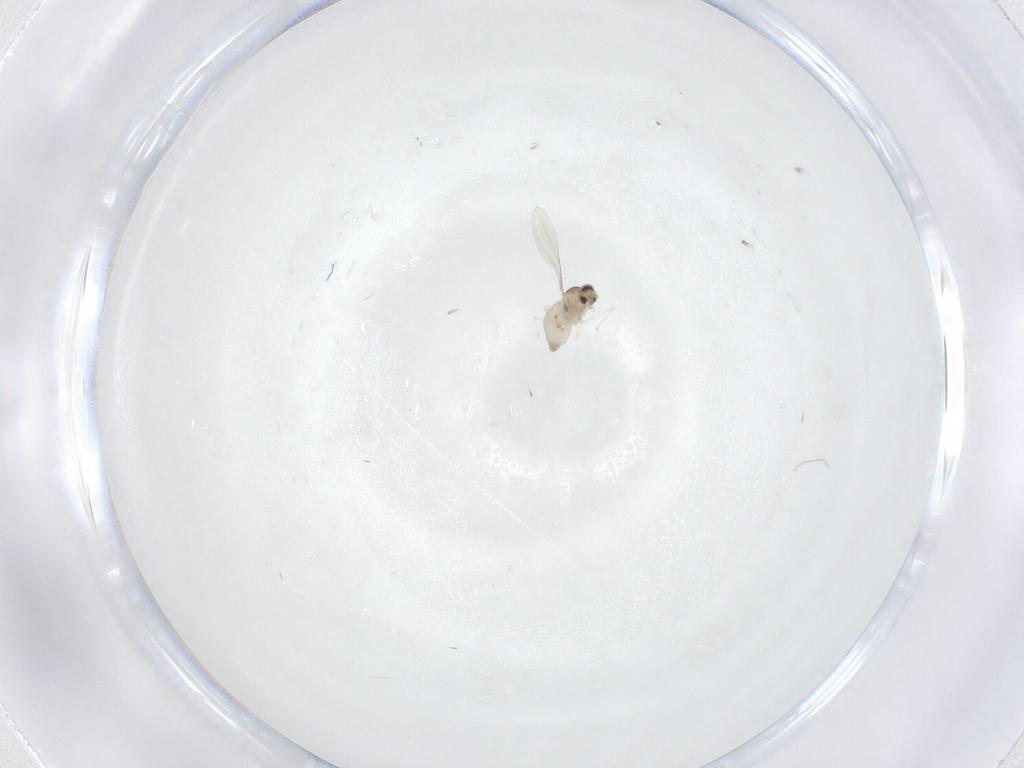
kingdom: Animalia
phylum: Arthropoda
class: Insecta
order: Diptera
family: Cecidomyiidae
